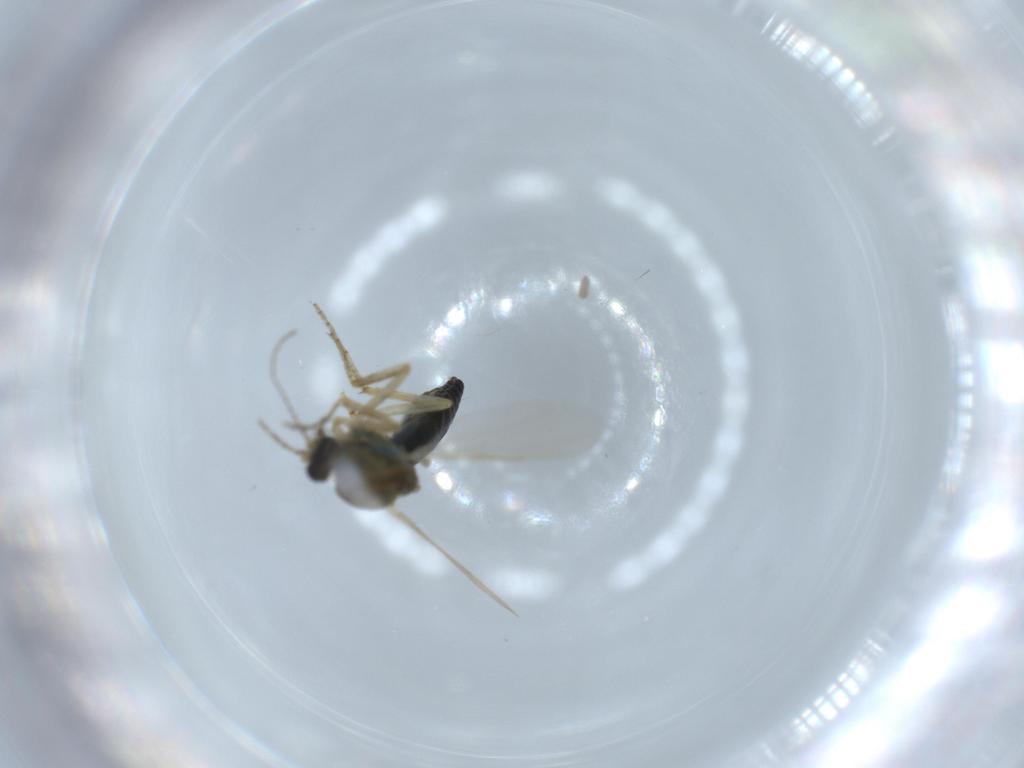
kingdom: Animalia
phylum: Arthropoda
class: Insecta
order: Diptera
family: Ceratopogonidae
